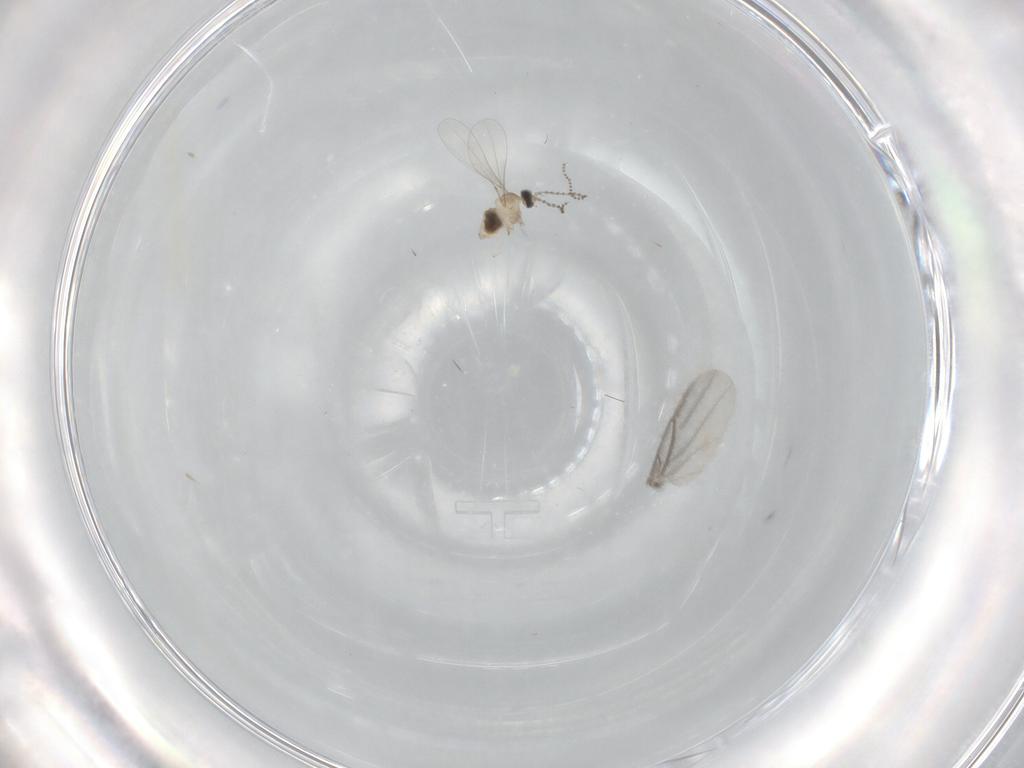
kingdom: Animalia
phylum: Arthropoda
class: Insecta
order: Diptera
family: Cecidomyiidae
